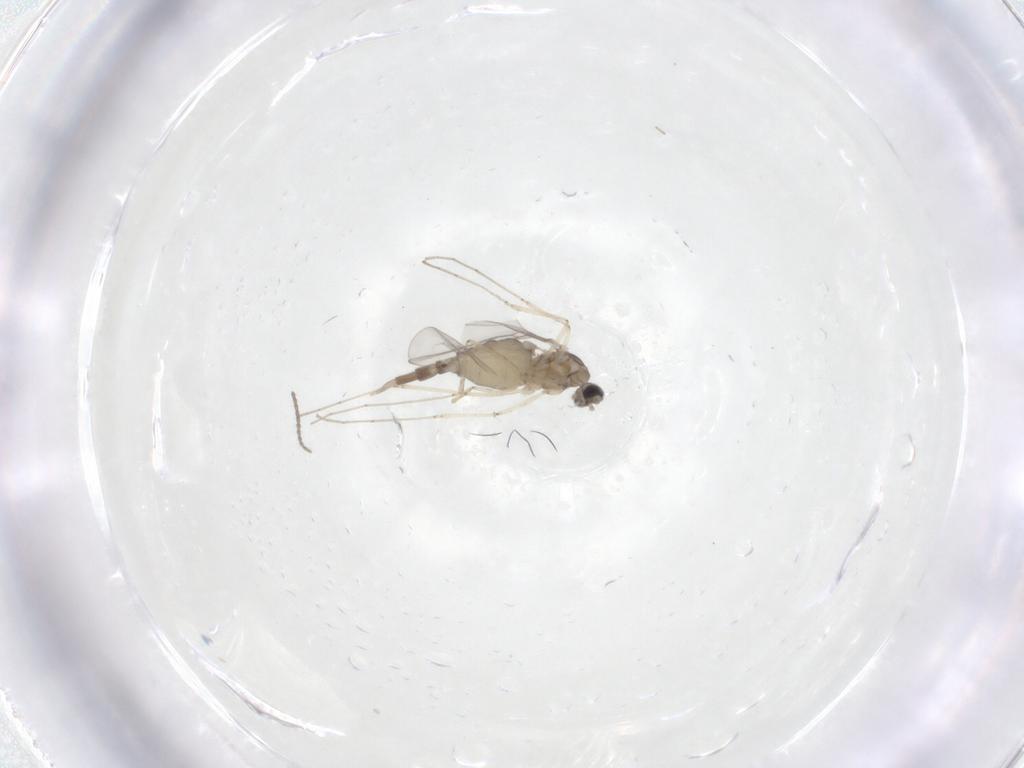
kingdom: Animalia
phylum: Arthropoda
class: Insecta
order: Diptera
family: Cecidomyiidae
